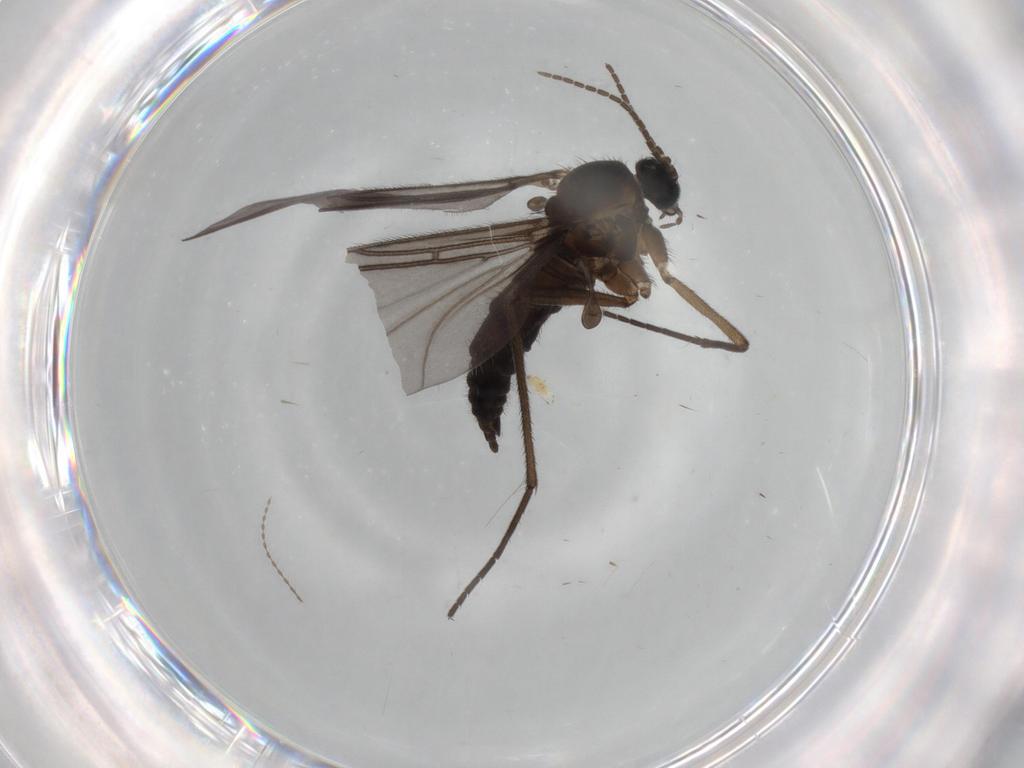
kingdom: Animalia
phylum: Arthropoda
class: Insecta
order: Diptera
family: Sciaridae
